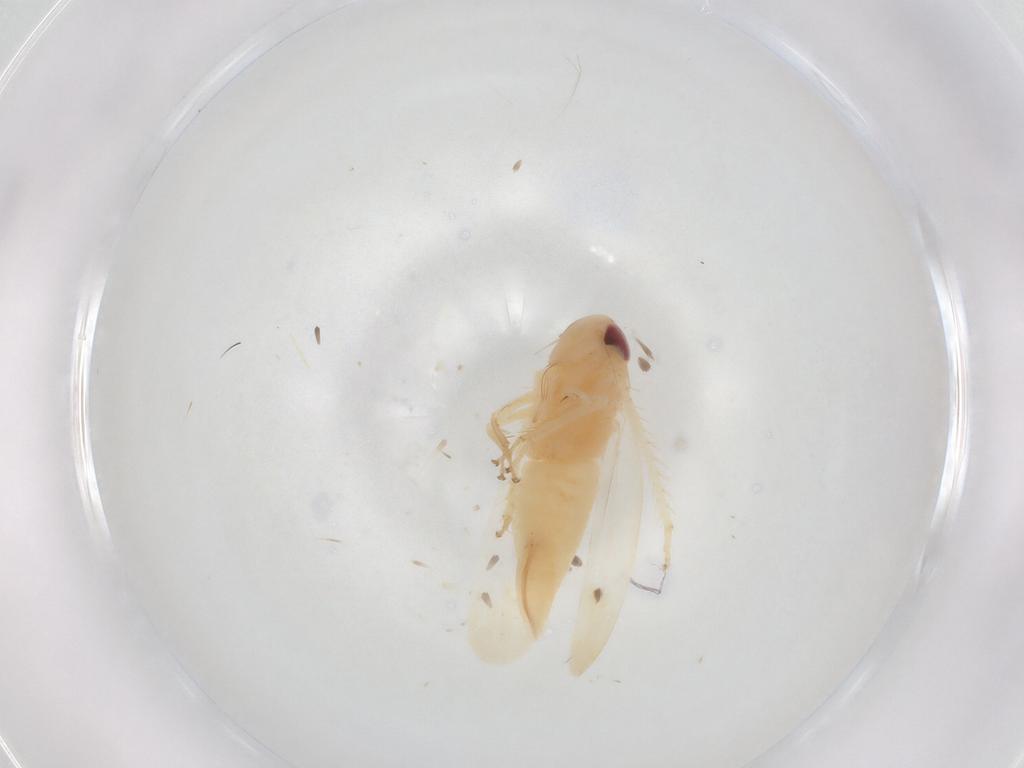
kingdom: Animalia
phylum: Arthropoda
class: Insecta
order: Hemiptera
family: Cicadellidae
